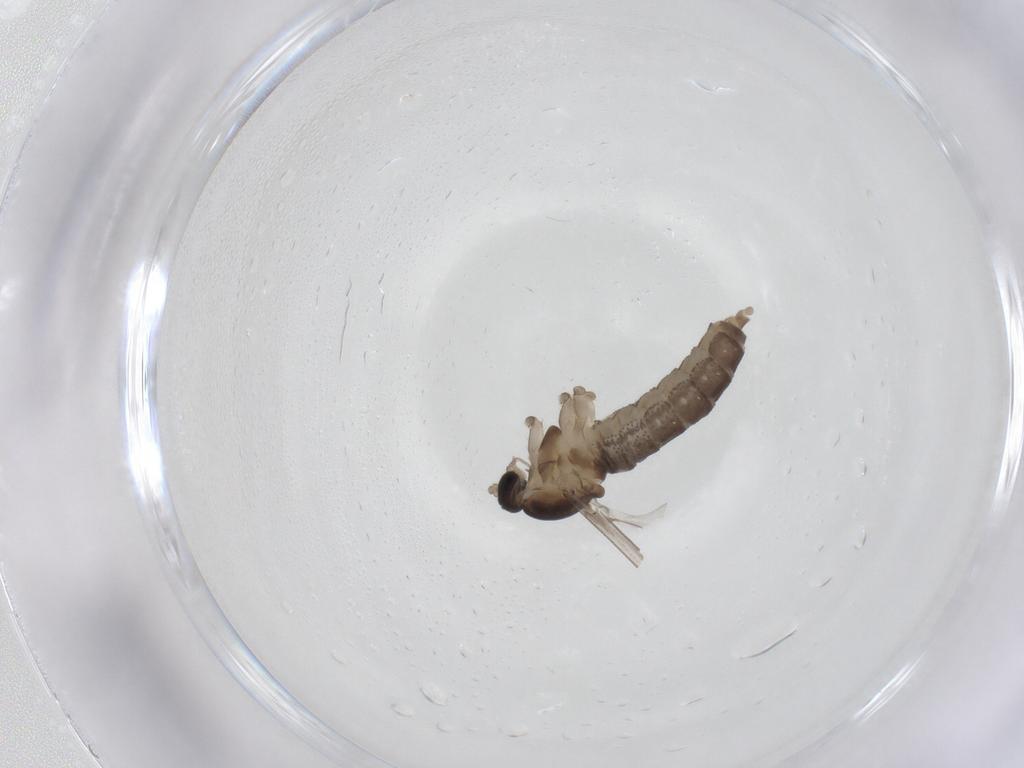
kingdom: Animalia
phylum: Arthropoda
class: Insecta
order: Diptera
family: Cecidomyiidae
